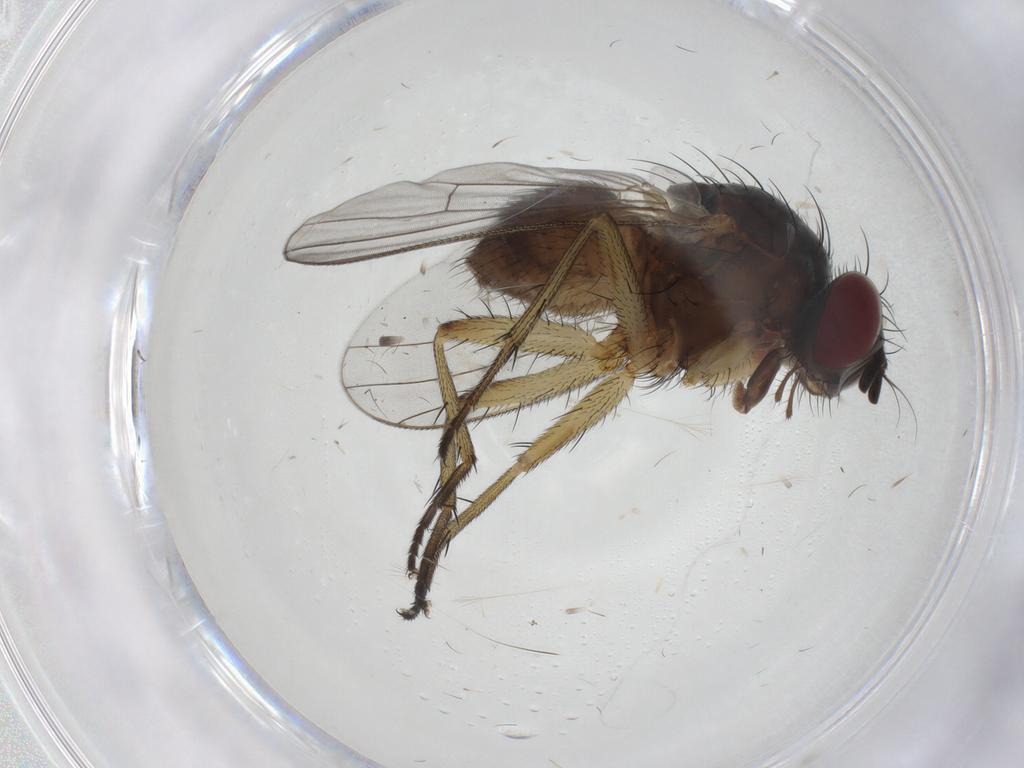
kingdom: Animalia
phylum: Arthropoda
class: Insecta
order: Diptera
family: Muscidae
